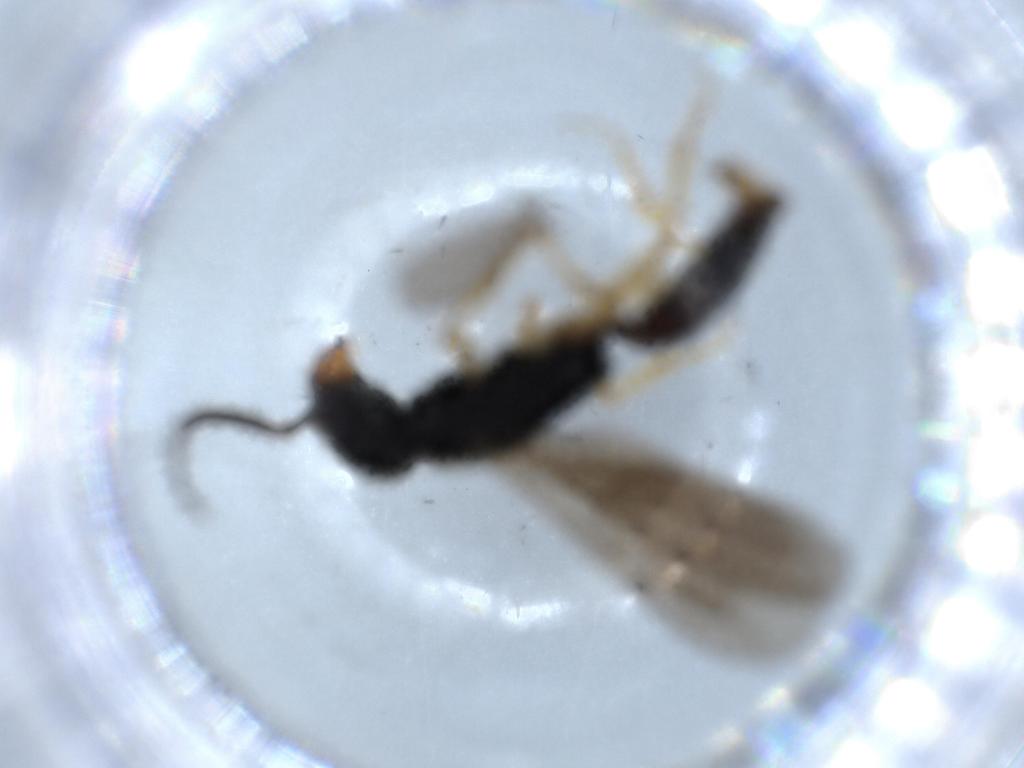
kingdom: Animalia
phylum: Arthropoda
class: Insecta
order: Hymenoptera
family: Bethylidae
